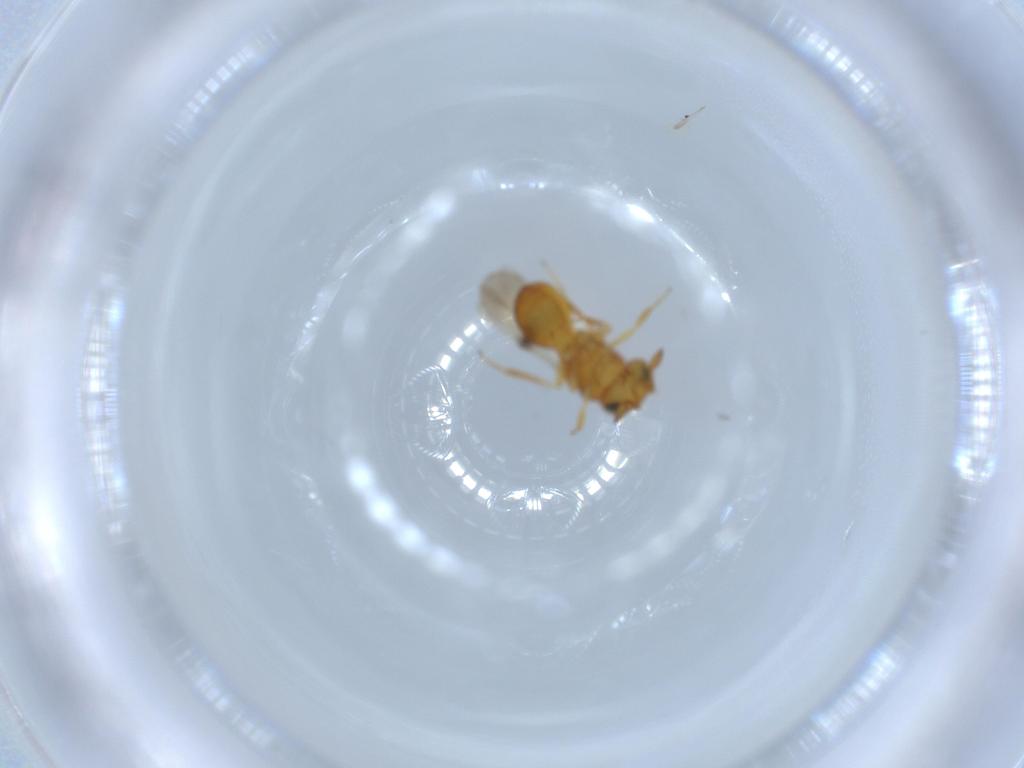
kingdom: Animalia
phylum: Arthropoda
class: Insecta
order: Hymenoptera
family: Scelionidae
